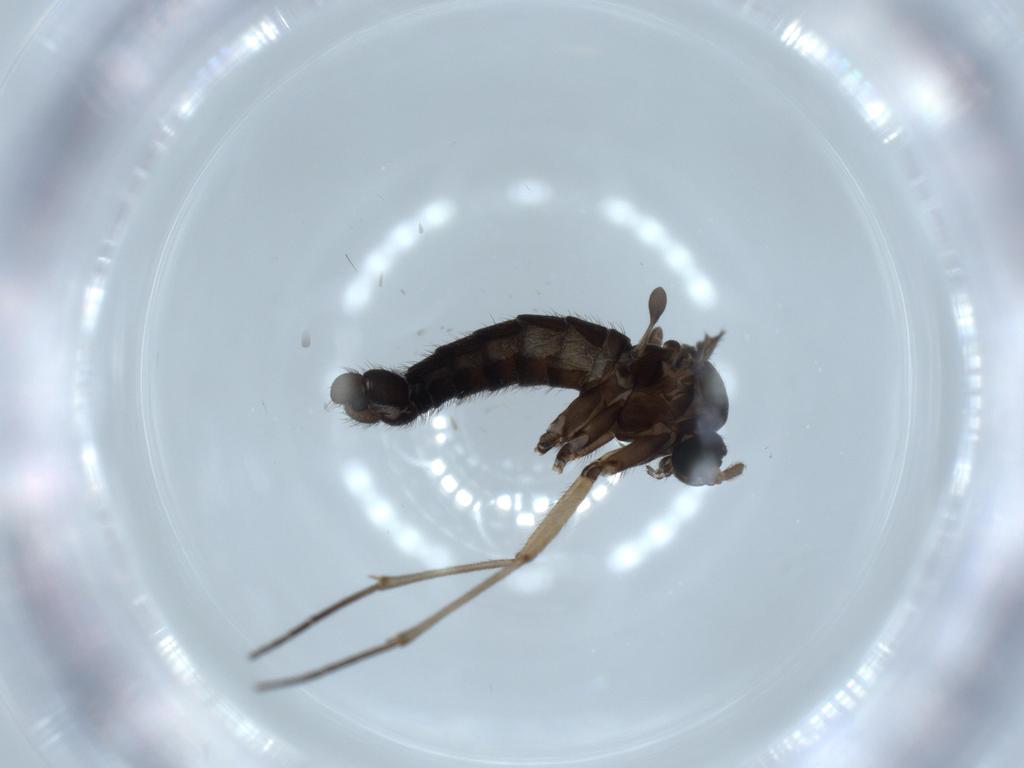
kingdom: Animalia
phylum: Arthropoda
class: Insecta
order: Diptera
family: Sciaridae
